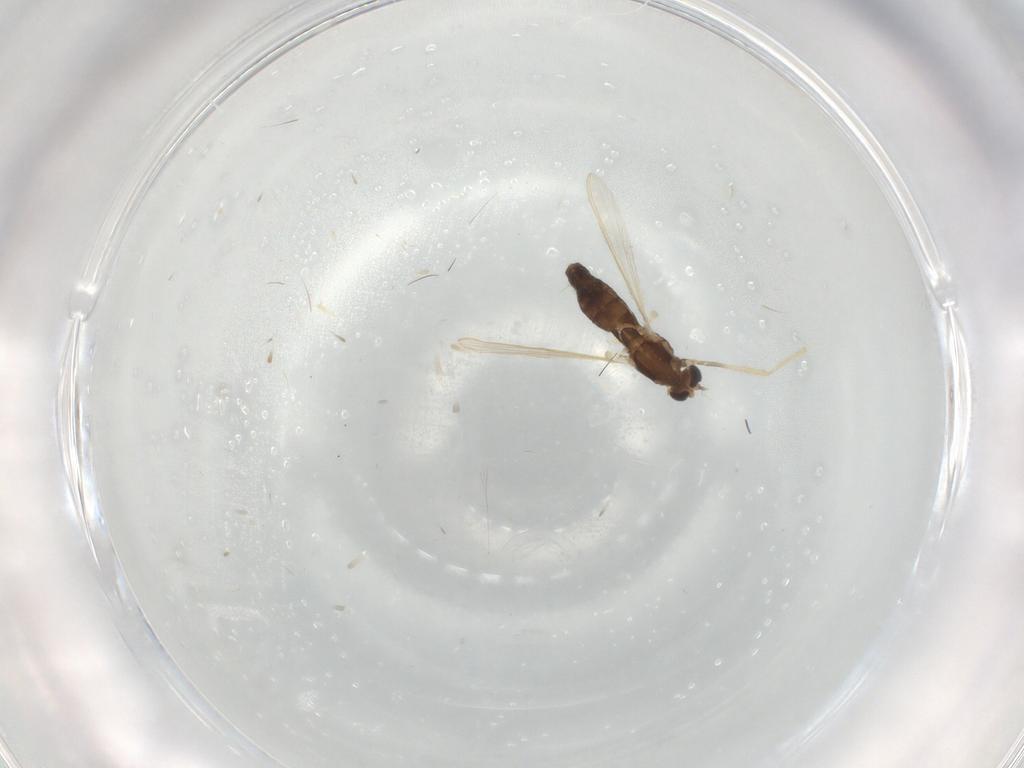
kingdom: Animalia
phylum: Arthropoda
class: Insecta
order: Diptera
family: Chironomidae
